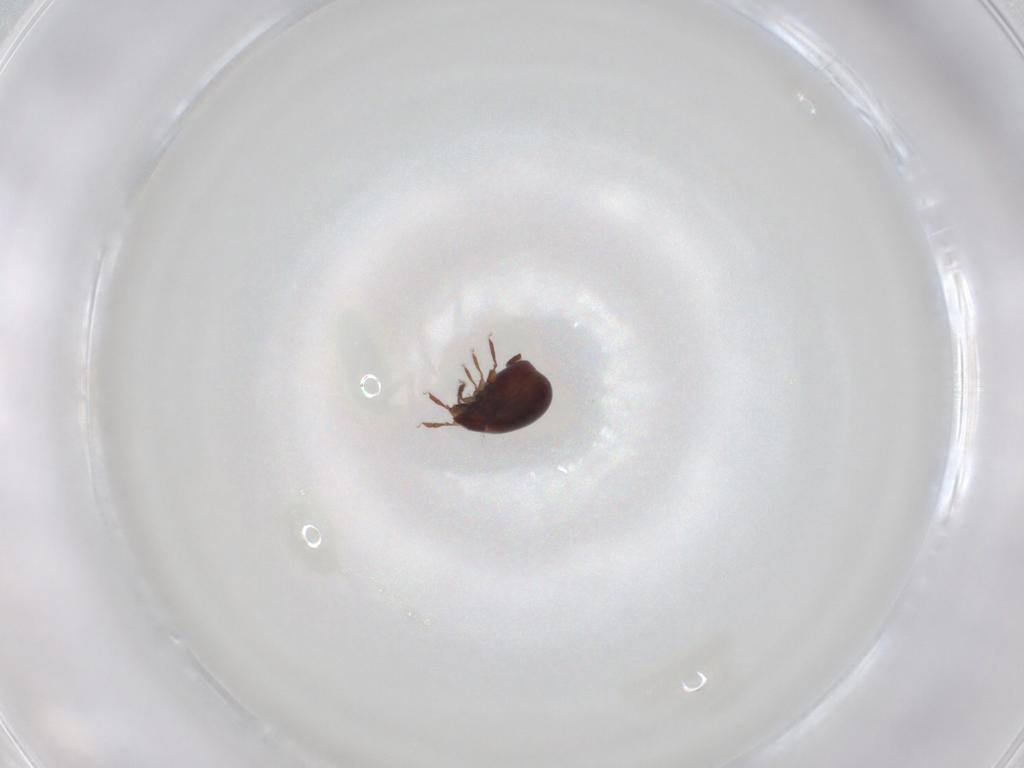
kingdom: Animalia
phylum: Arthropoda
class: Arachnida
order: Sarcoptiformes
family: Humerobatidae
